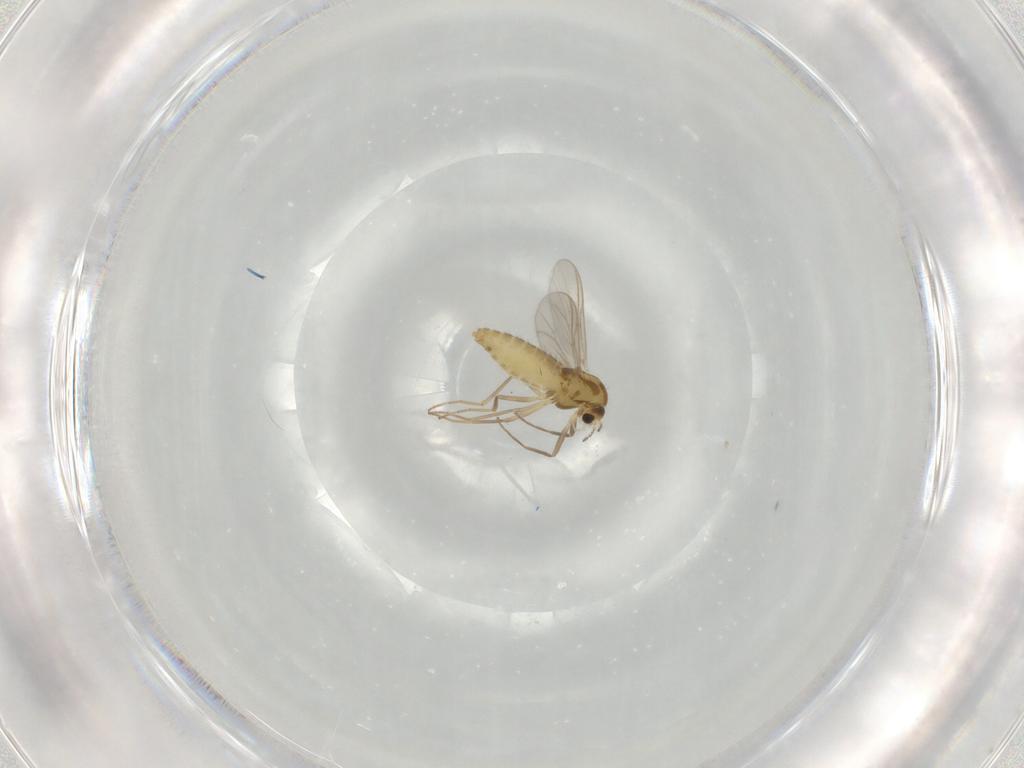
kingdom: Animalia
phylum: Arthropoda
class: Insecta
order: Diptera
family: Chironomidae
